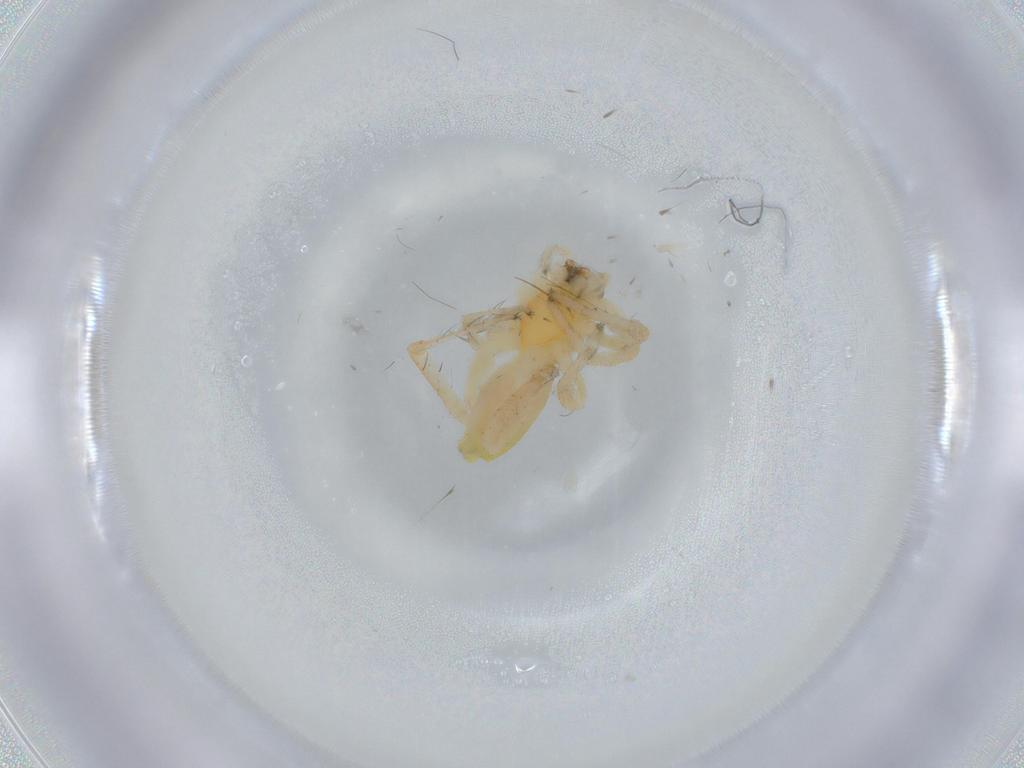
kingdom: Animalia
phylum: Arthropoda
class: Arachnida
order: Araneae
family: Anyphaenidae
